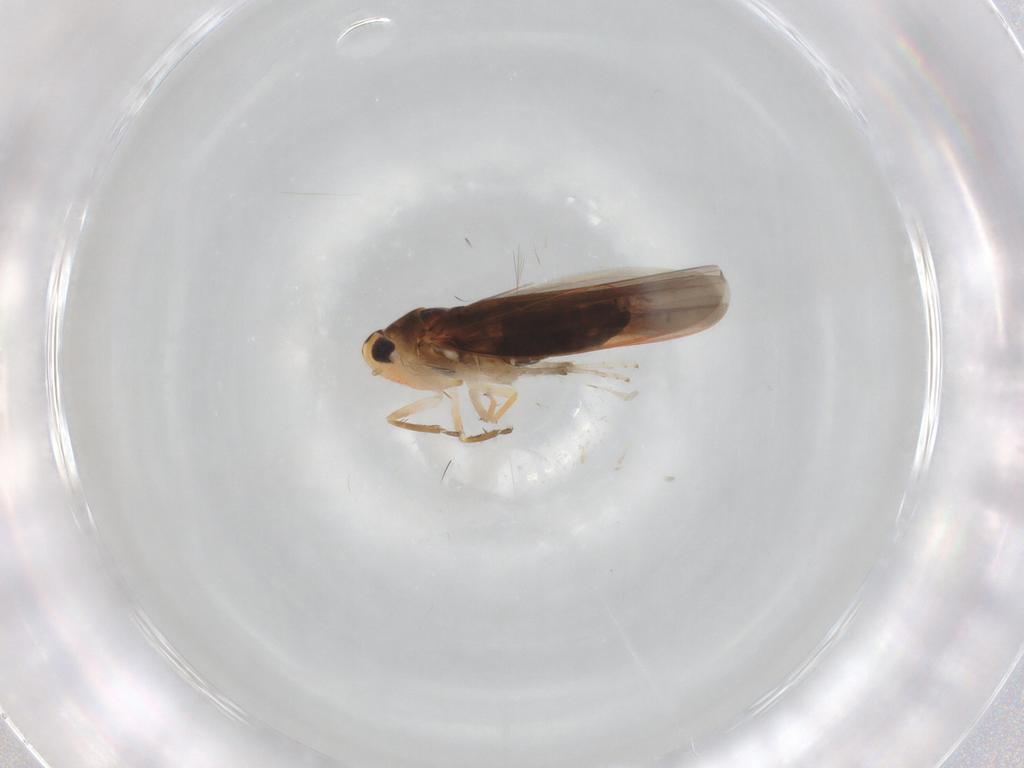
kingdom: Animalia
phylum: Arthropoda
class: Insecta
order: Hemiptera
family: Cicadellidae
